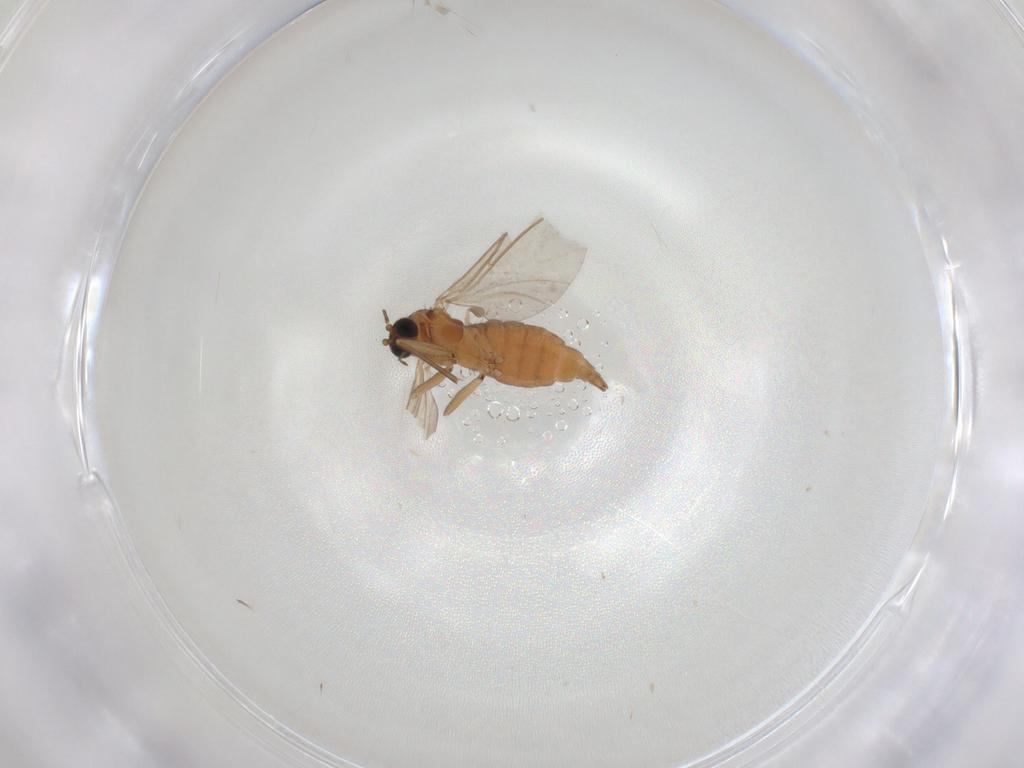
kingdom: Animalia
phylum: Arthropoda
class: Insecta
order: Diptera
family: Sciaridae
